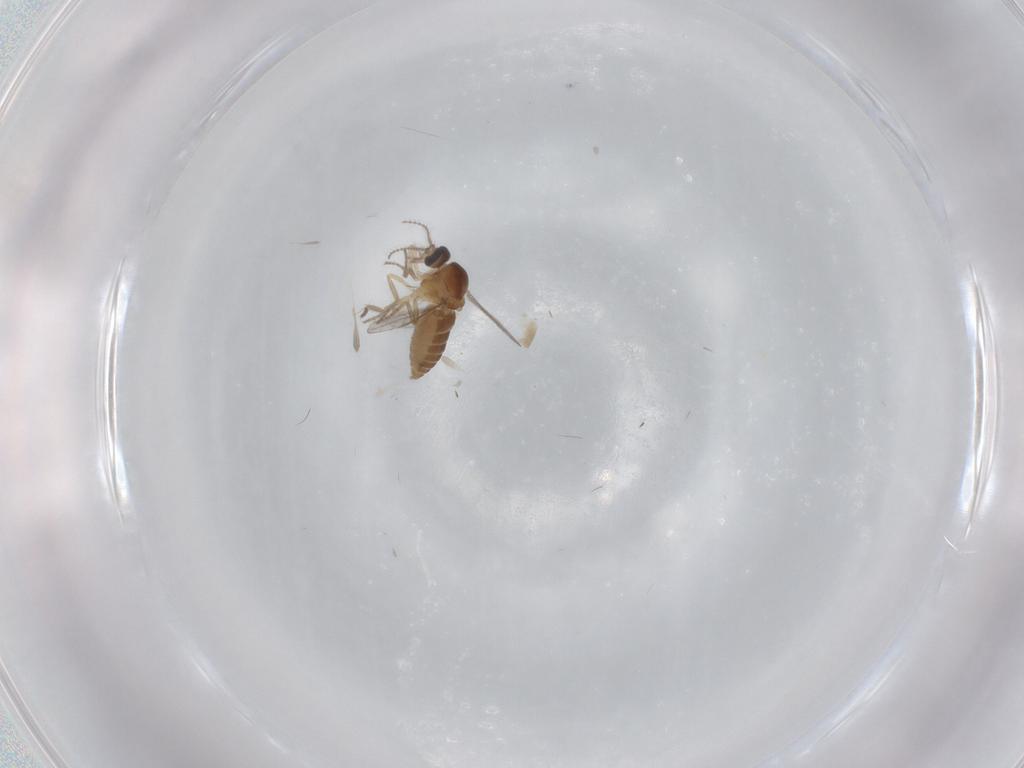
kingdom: Animalia
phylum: Arthropoda
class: Insecta
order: Diptera
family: Ceratopogonidae
